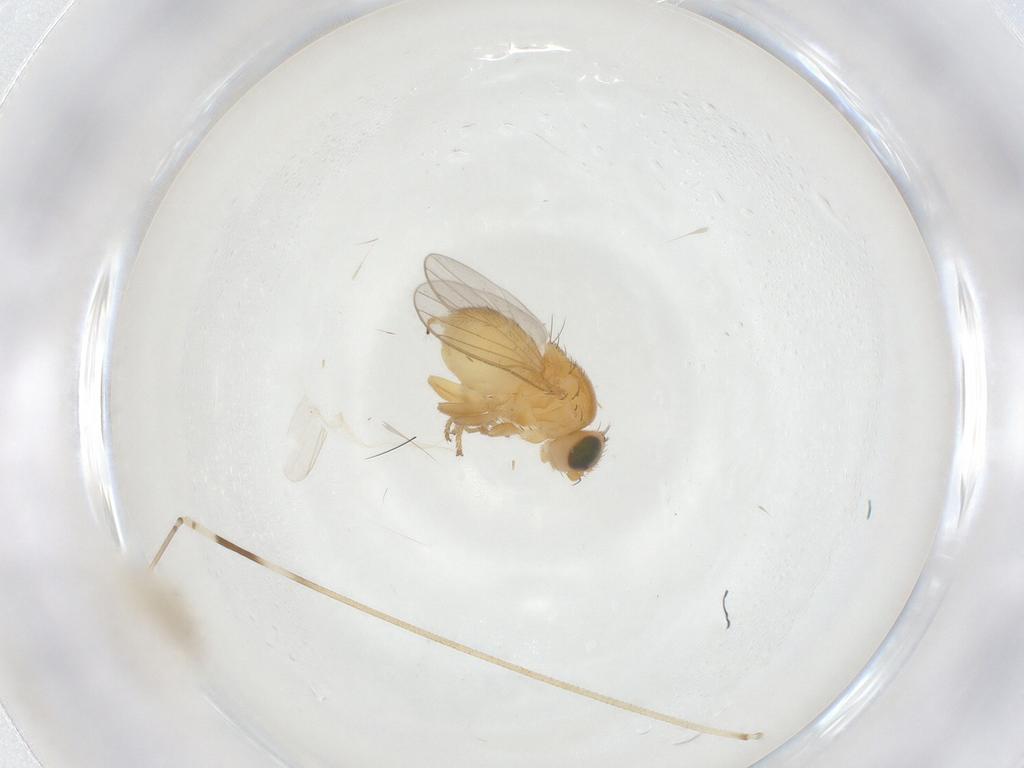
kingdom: Animalia
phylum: Arthropoda
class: Insecta
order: Diptera
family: Chloropidae
